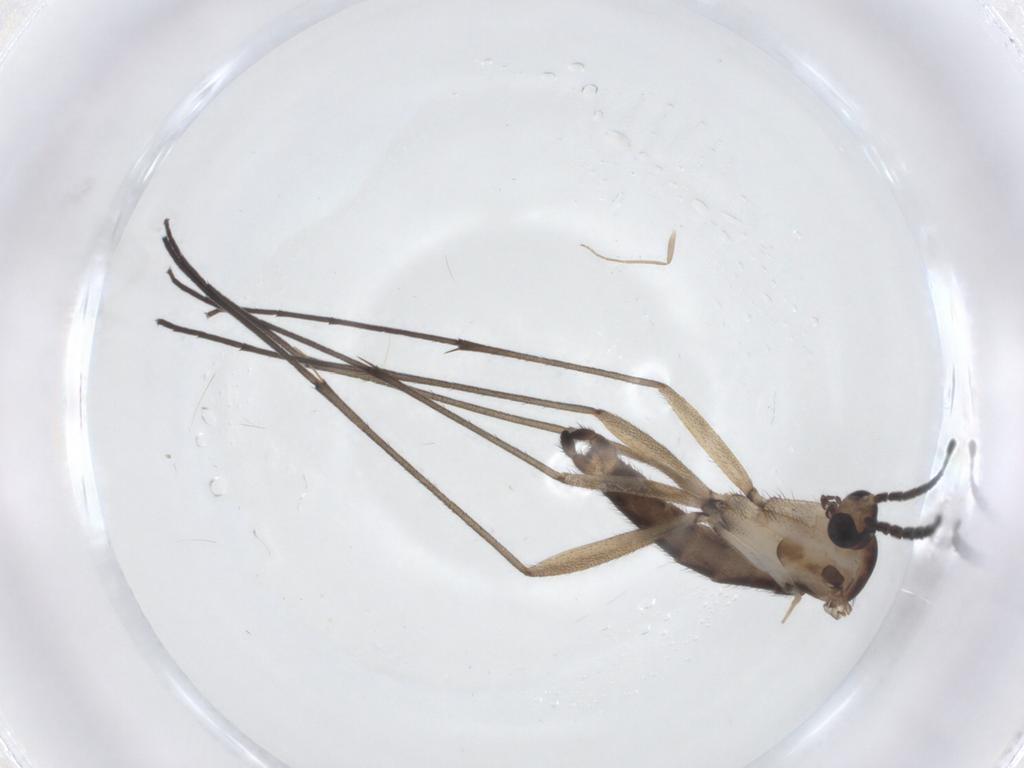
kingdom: Animalia
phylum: Arthropoda
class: Insecta
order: Diptera
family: Sciaridae
